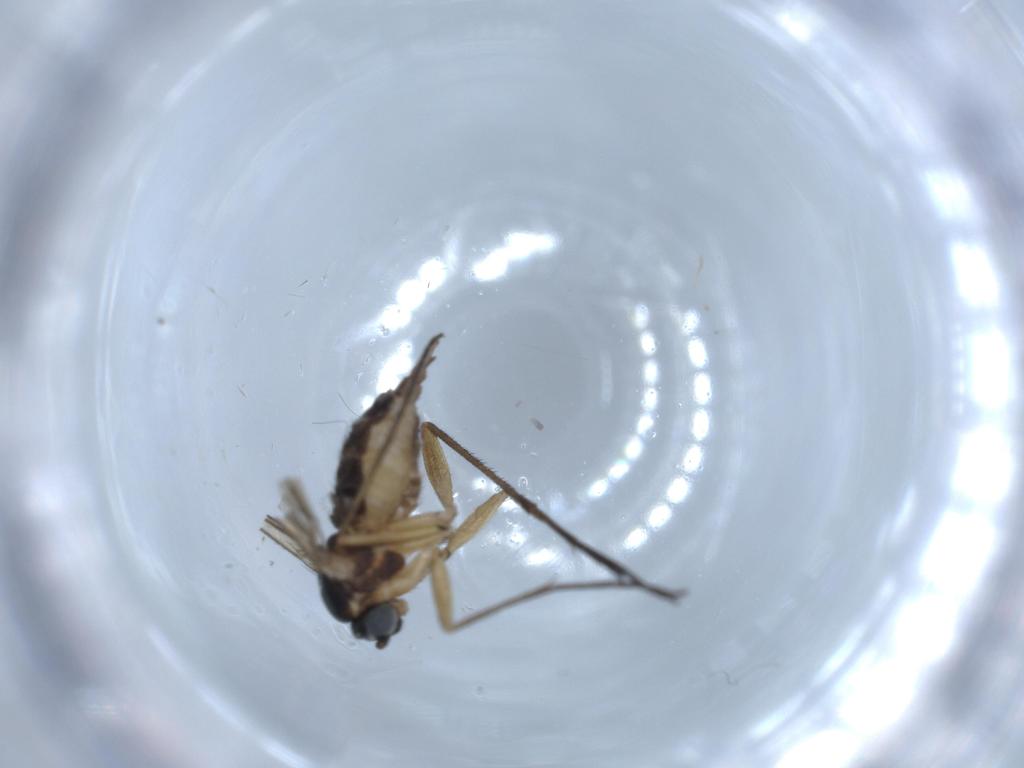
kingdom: Animalia
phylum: Arthropoda
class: Insecta
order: Diptera
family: Sciaridae
